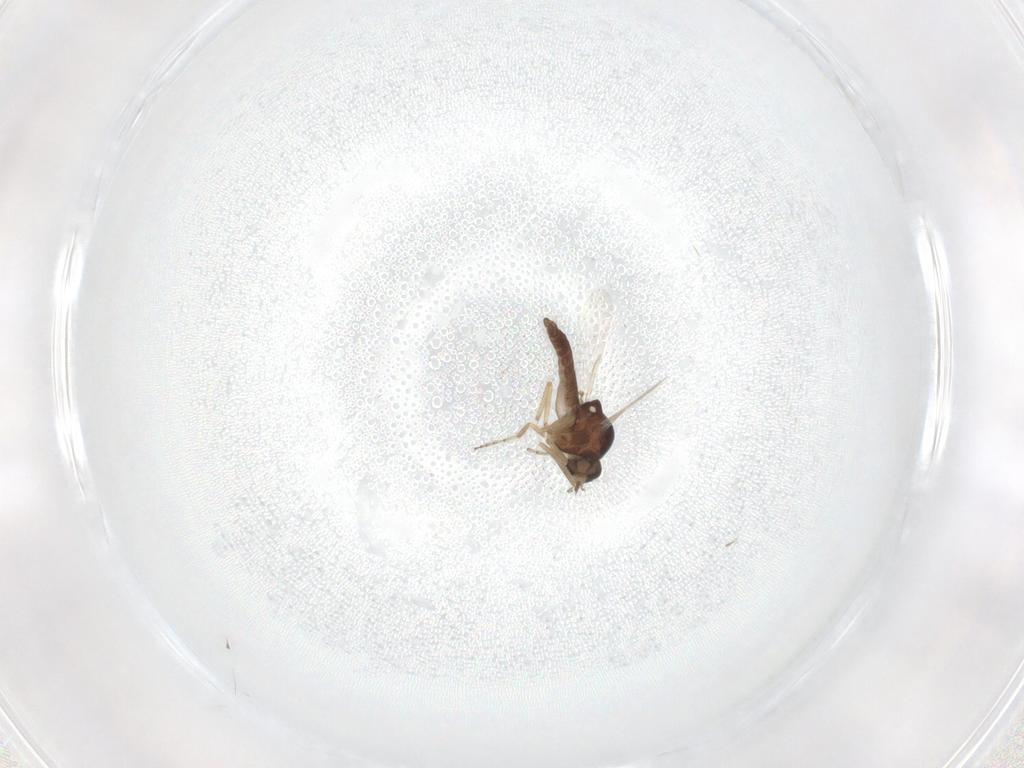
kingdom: Animalia
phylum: Arthropoda
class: Insecta
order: Diptera
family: Ceratopogonidae
